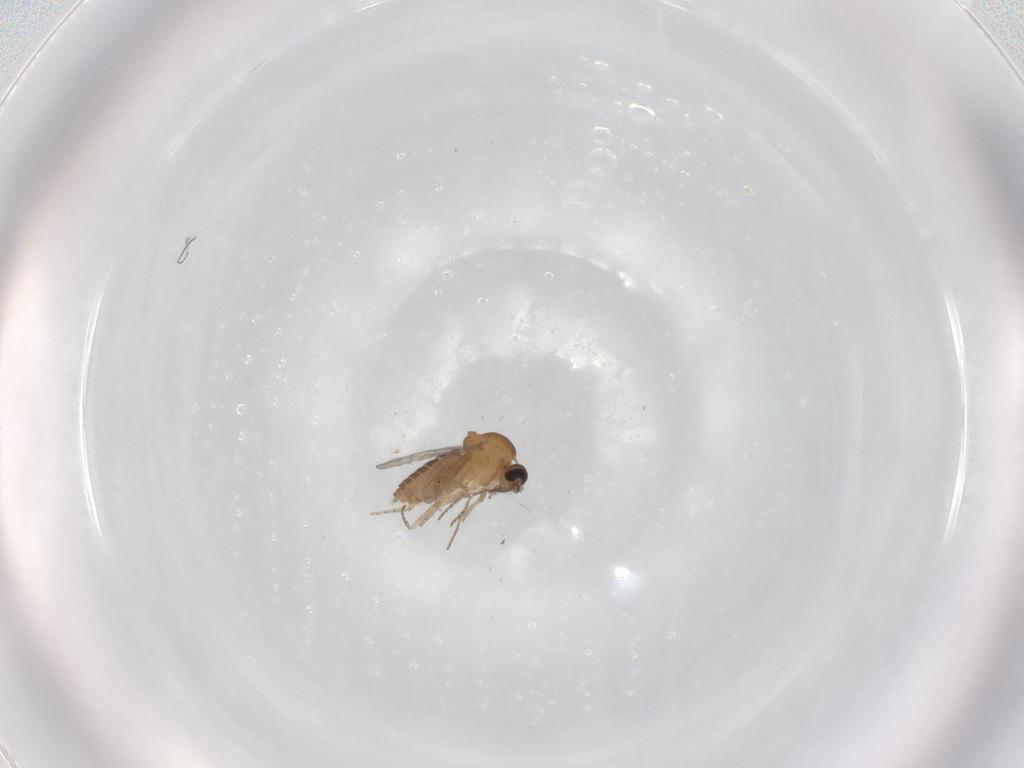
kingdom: Animalia
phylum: Arthropoda
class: Insecta
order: Diptera
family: Ceratopogonidae
